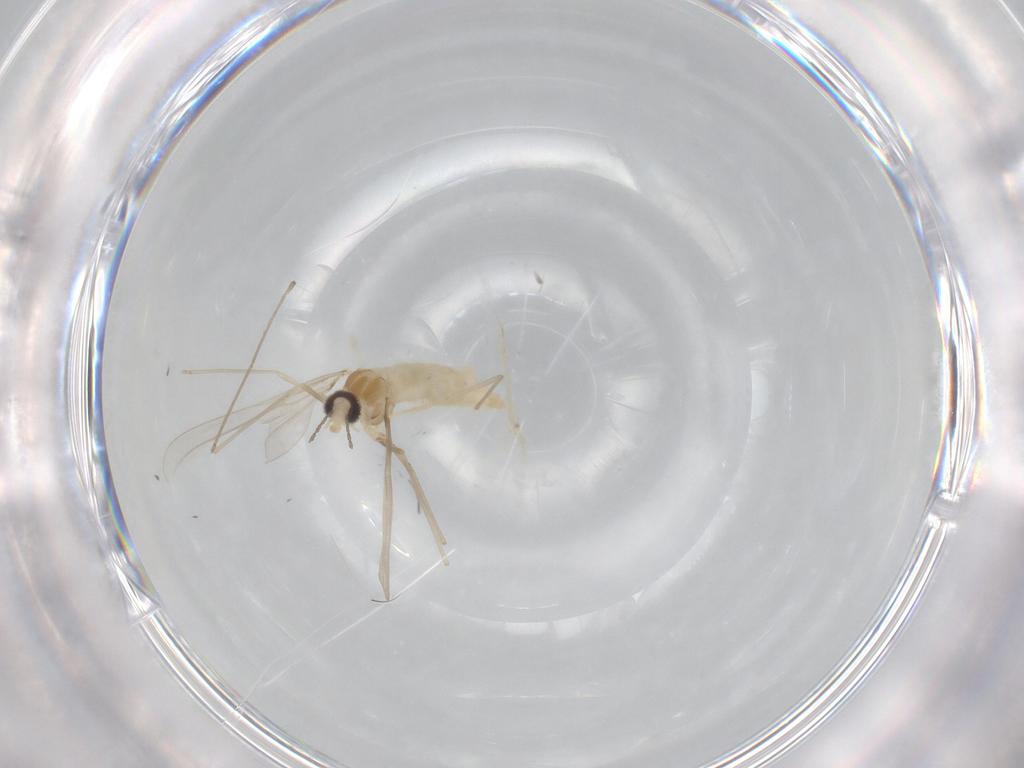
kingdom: Animalia
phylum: Arthropoda
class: Insecta
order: Diptera
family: Cecidomyiidae
